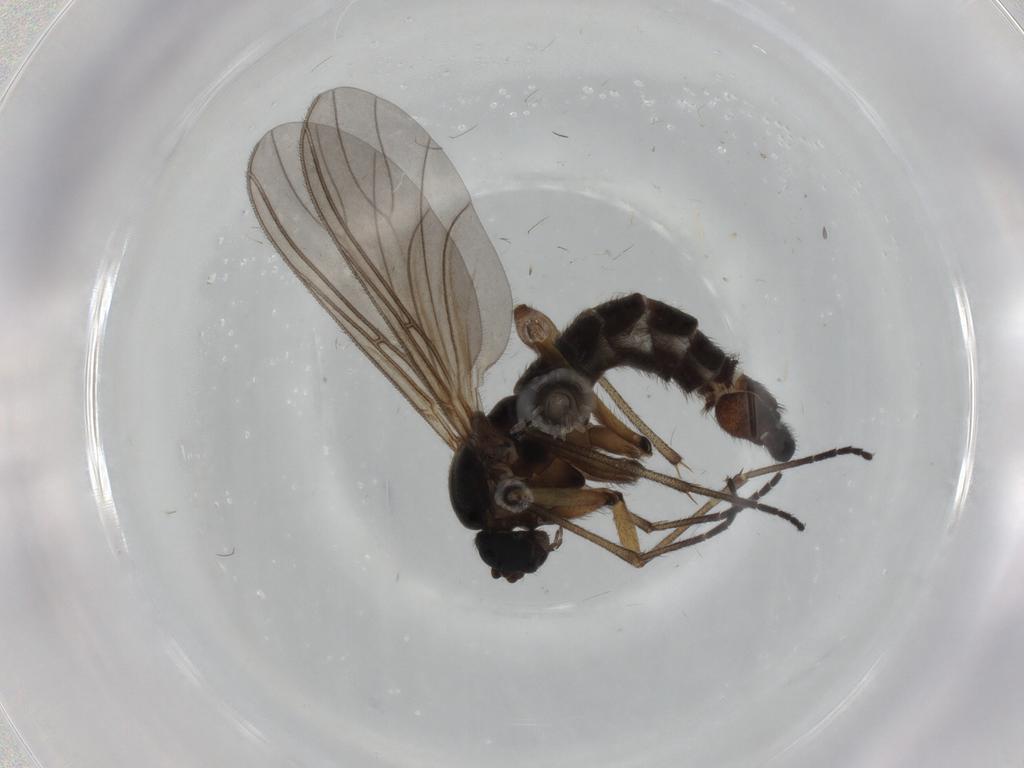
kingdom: Animalia
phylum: Arthropoda
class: Insecta
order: Diptera
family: Sciaridae
